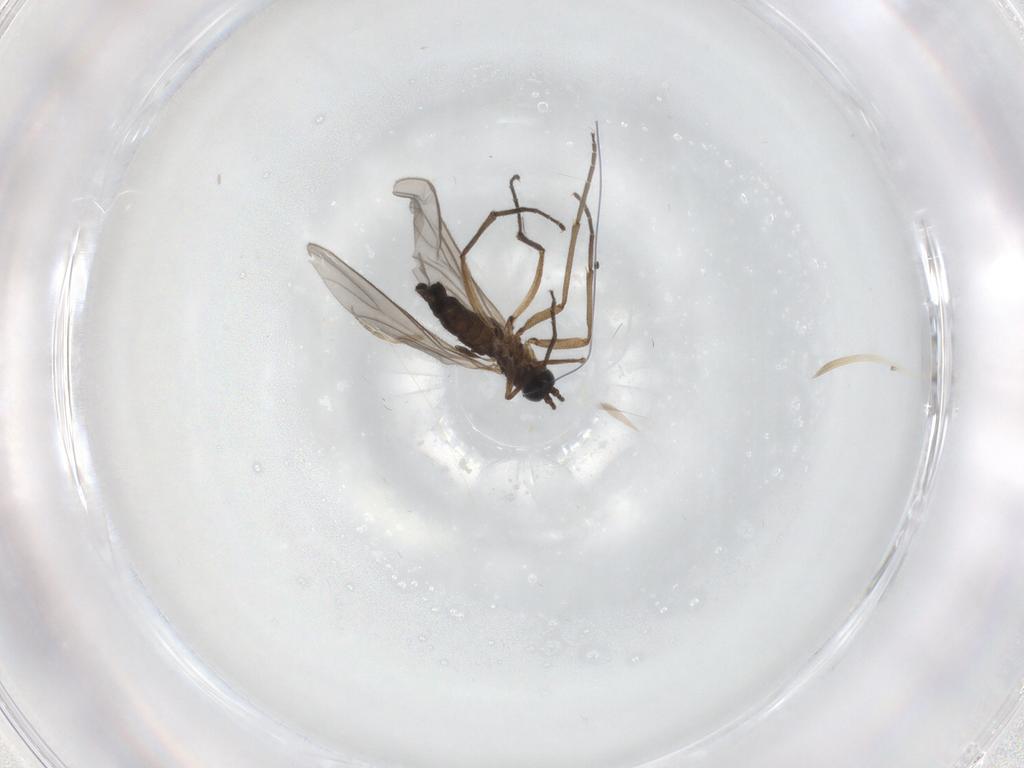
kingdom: Animalia
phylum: Arthropoda
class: Insecta
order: Diptera
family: Sciaridae
